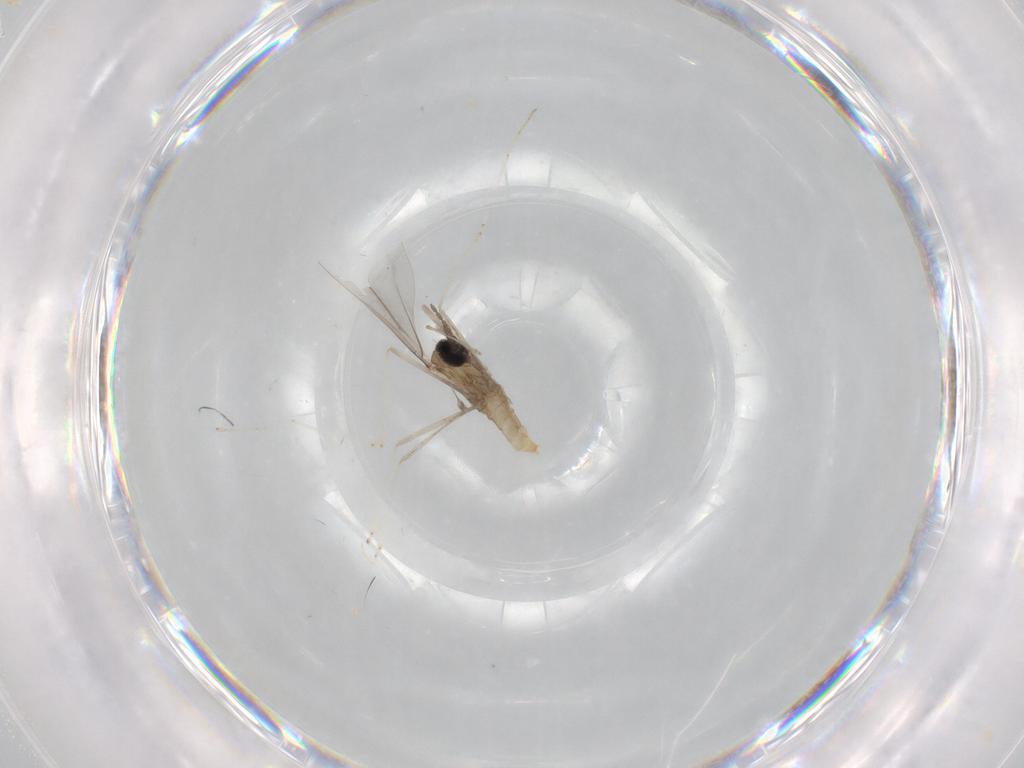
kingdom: Animalia
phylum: Arthropoda
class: Insecta
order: Diptera
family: Cecidomyiidae
